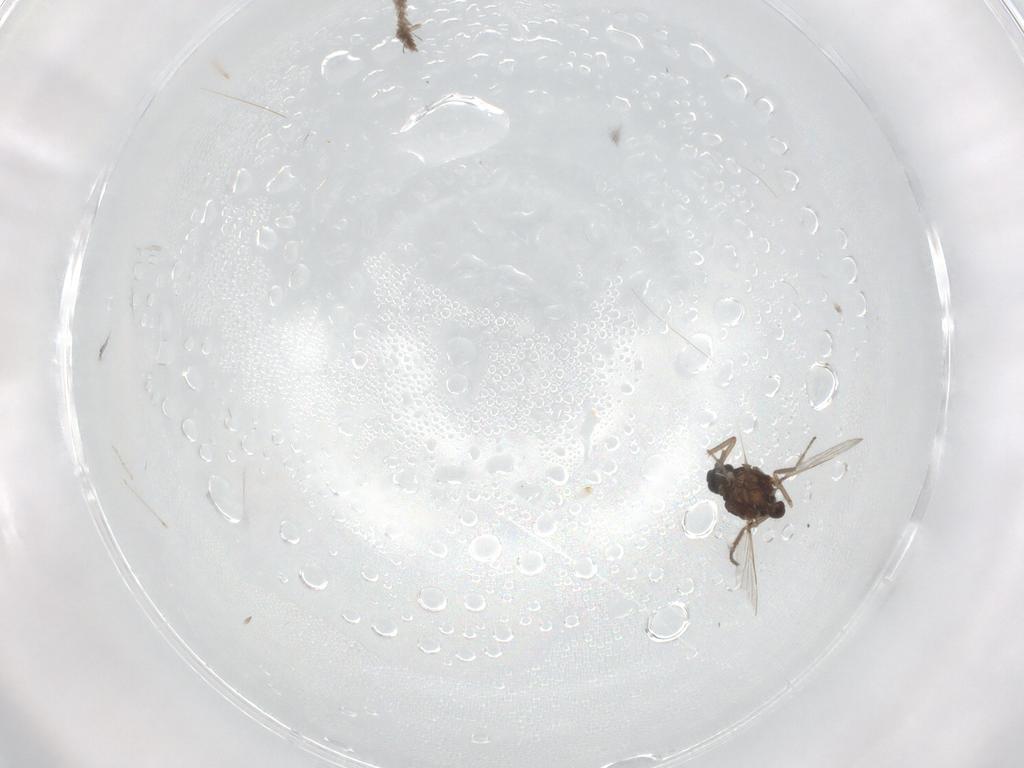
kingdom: Animalia
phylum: Arthropoda
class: Insecta
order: Diptera
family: Ceratopogonidae
